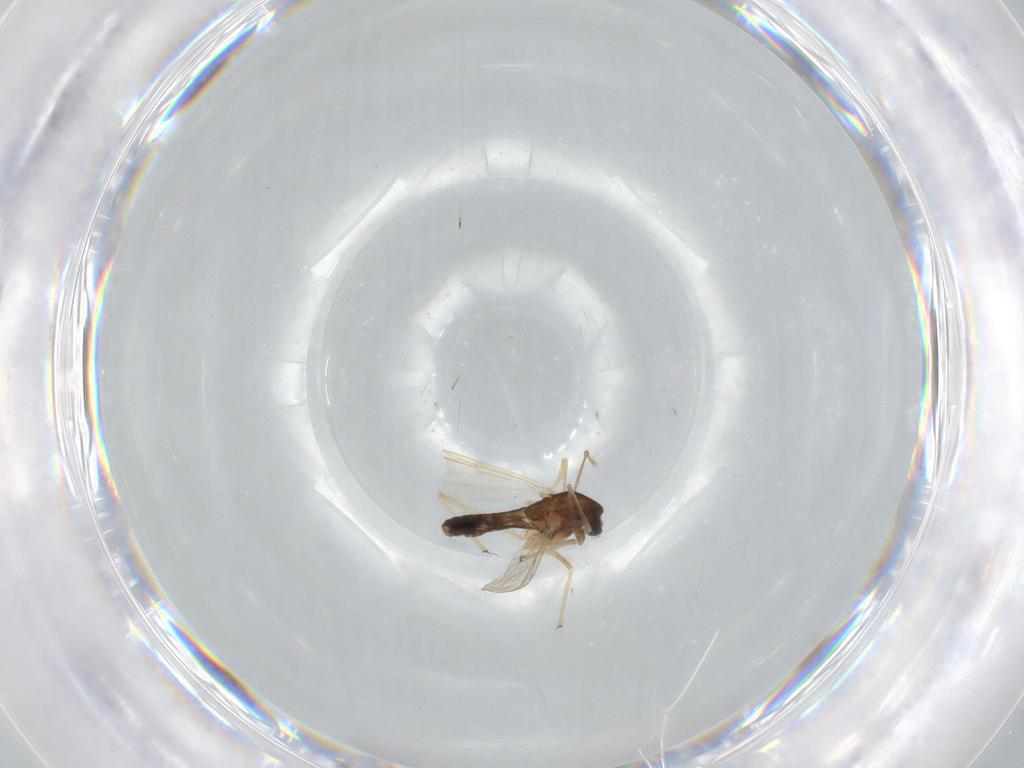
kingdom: Animalia
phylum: Arthropoda
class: Insecta
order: Diptera
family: Chironomidae
